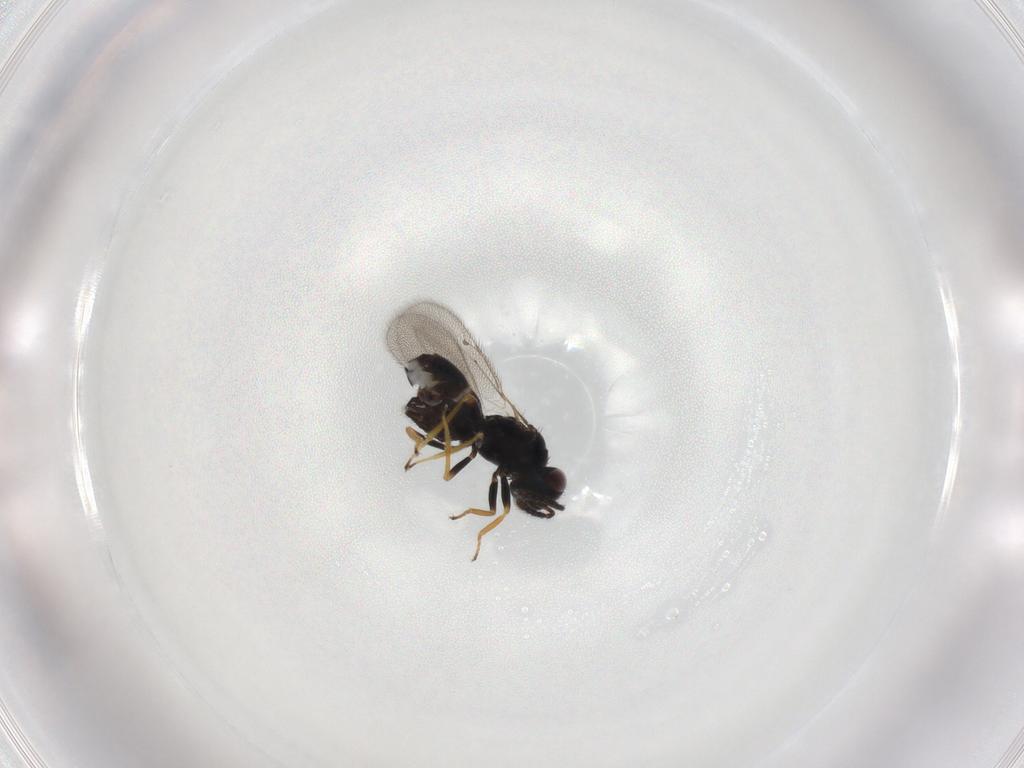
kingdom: Animalia
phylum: Arthropoda
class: Insecta
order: Hymenoptera
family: Eulophidae
